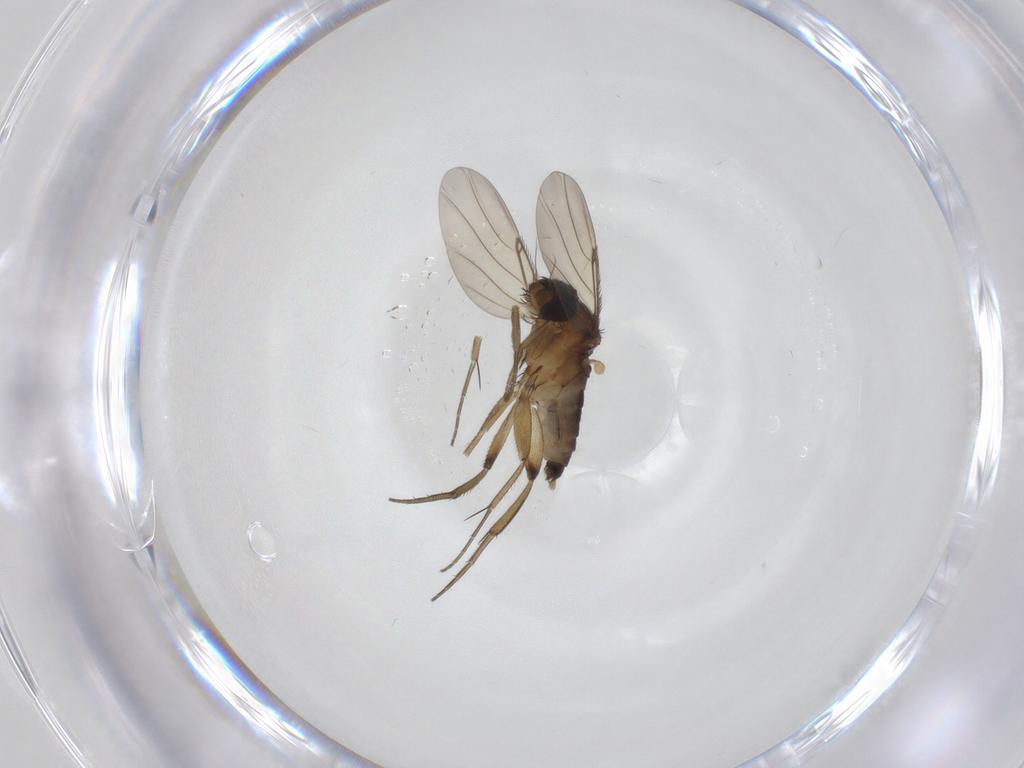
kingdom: Animalia
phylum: Arthropoda
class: Insecta
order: Diptera
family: Phoridae
